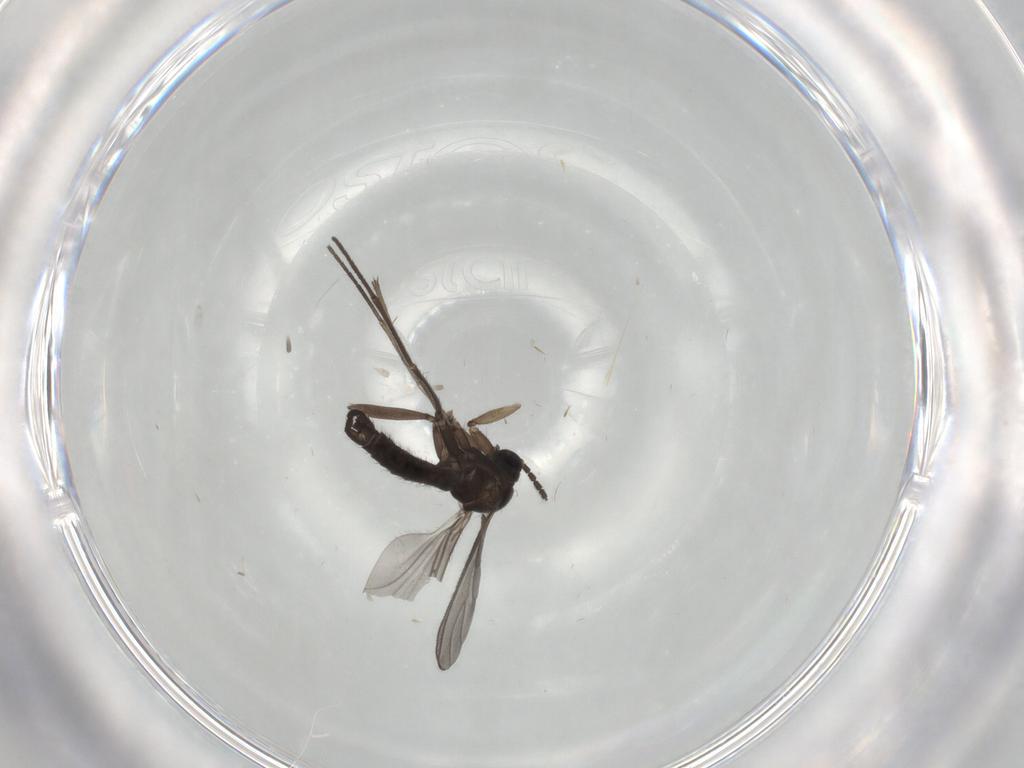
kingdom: Animalia
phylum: Arthropoda
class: Insecta
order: Diptera
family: Sciaridae
